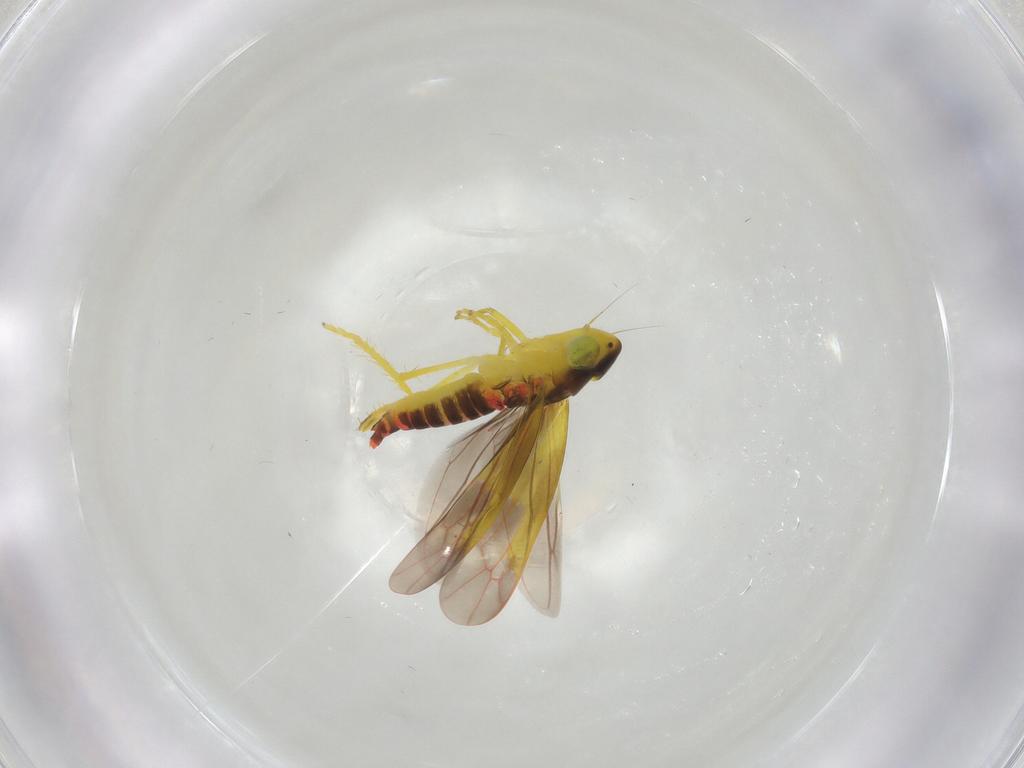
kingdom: Animalia
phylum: Arthropoda
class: Insecta
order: Hemiptera
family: Cicadellidae
